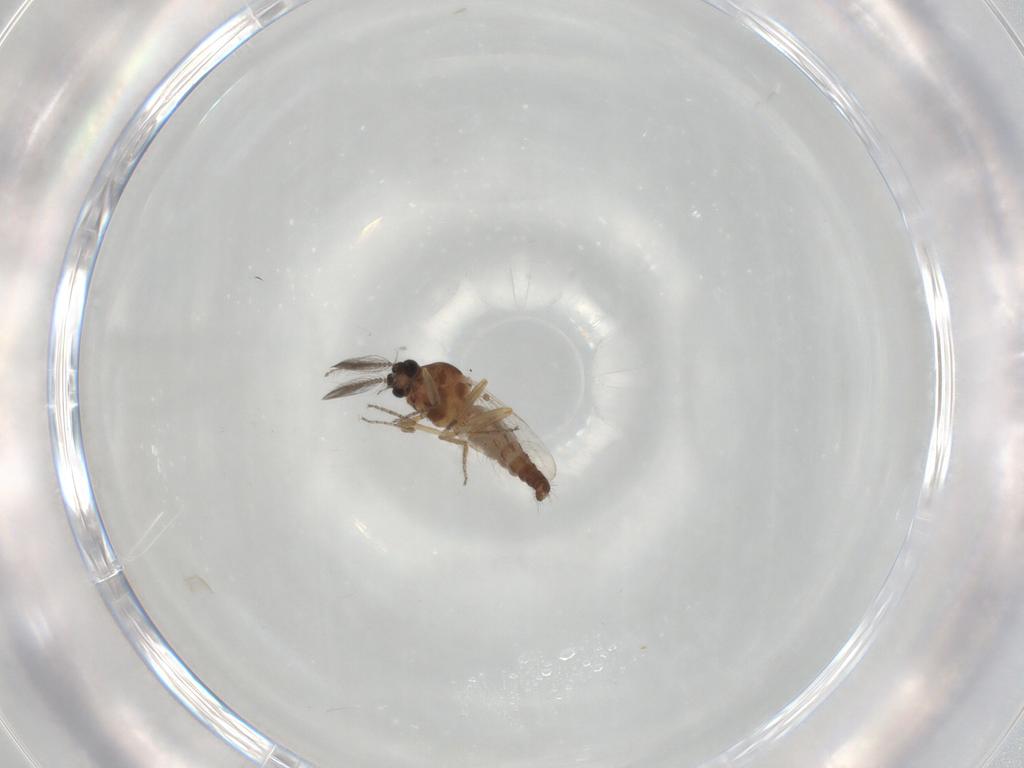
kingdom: Animalia
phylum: Arthropoda
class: Insecta
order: Diptera
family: Ceratopogonidae
